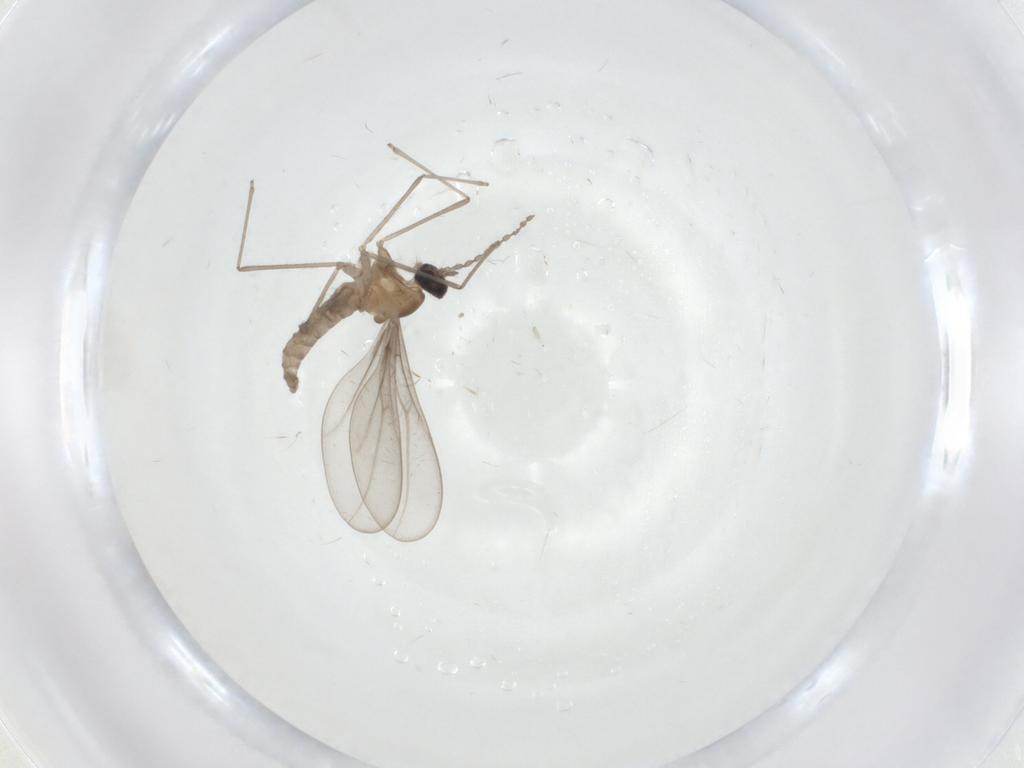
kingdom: Animalia
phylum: Arthropoda
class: Insecta
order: Diptera
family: Cecidomyiidae
